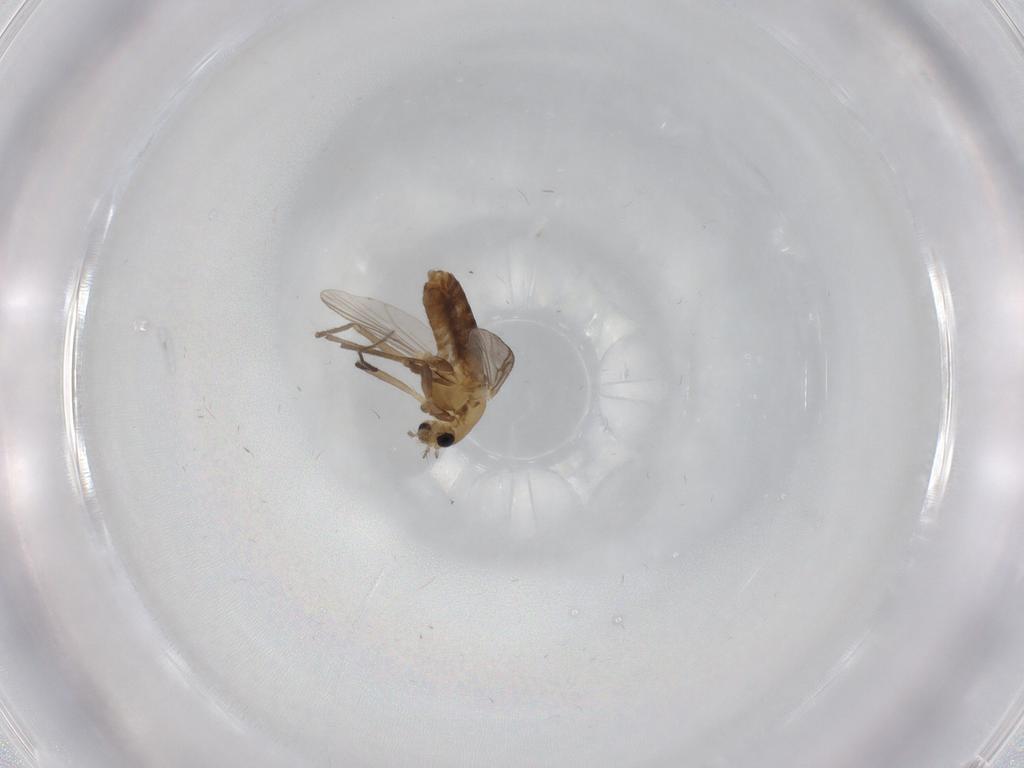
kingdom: Animalia
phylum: Arthropoda
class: Insecta
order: Diptera
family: Chironomidae
